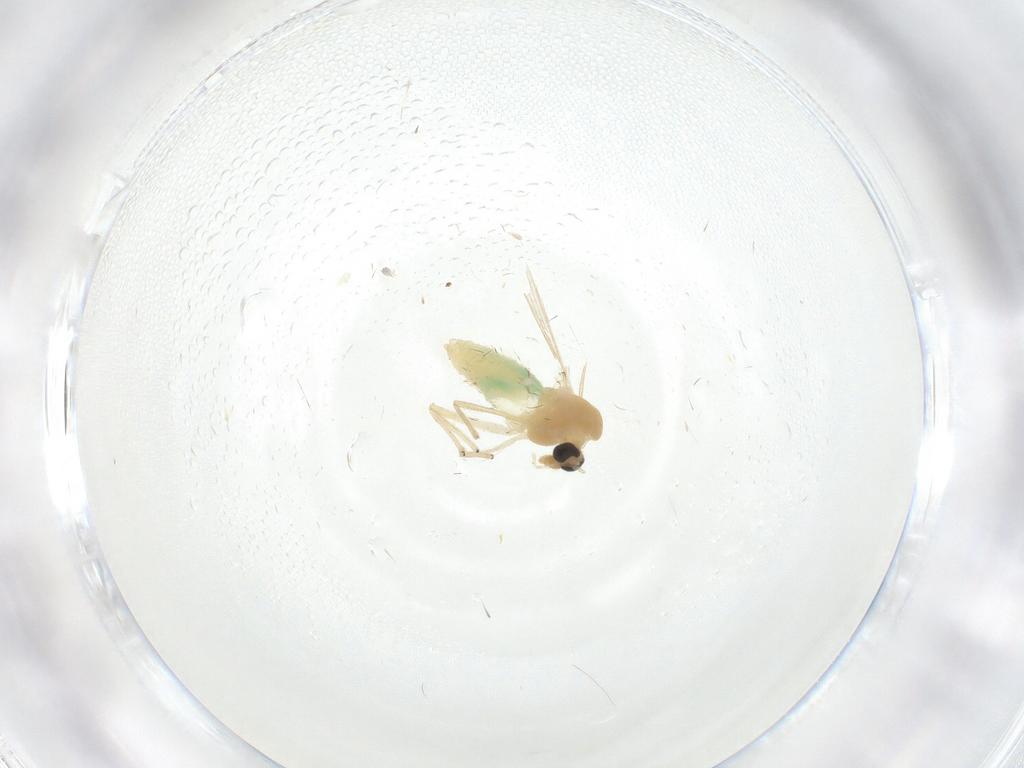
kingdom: Animalia
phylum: Arthropoda
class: Insecta
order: Diptera
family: Chironomidae
